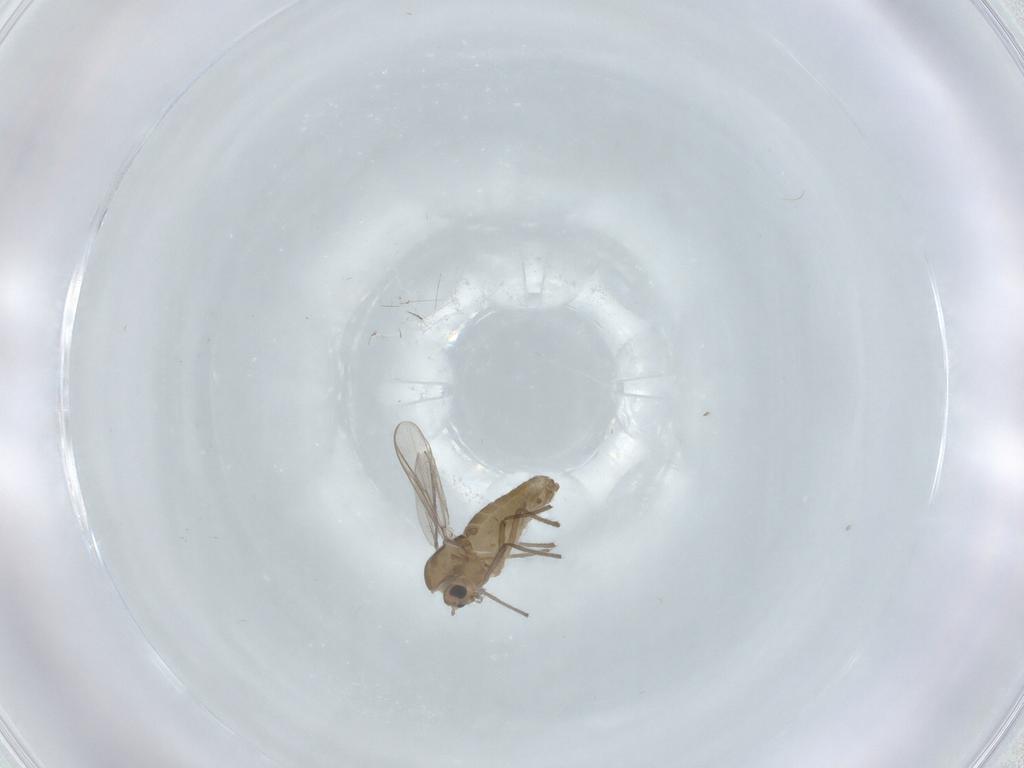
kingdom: Animalia
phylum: Arthropoda
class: Insecta
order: Diptera
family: Chironomidae
